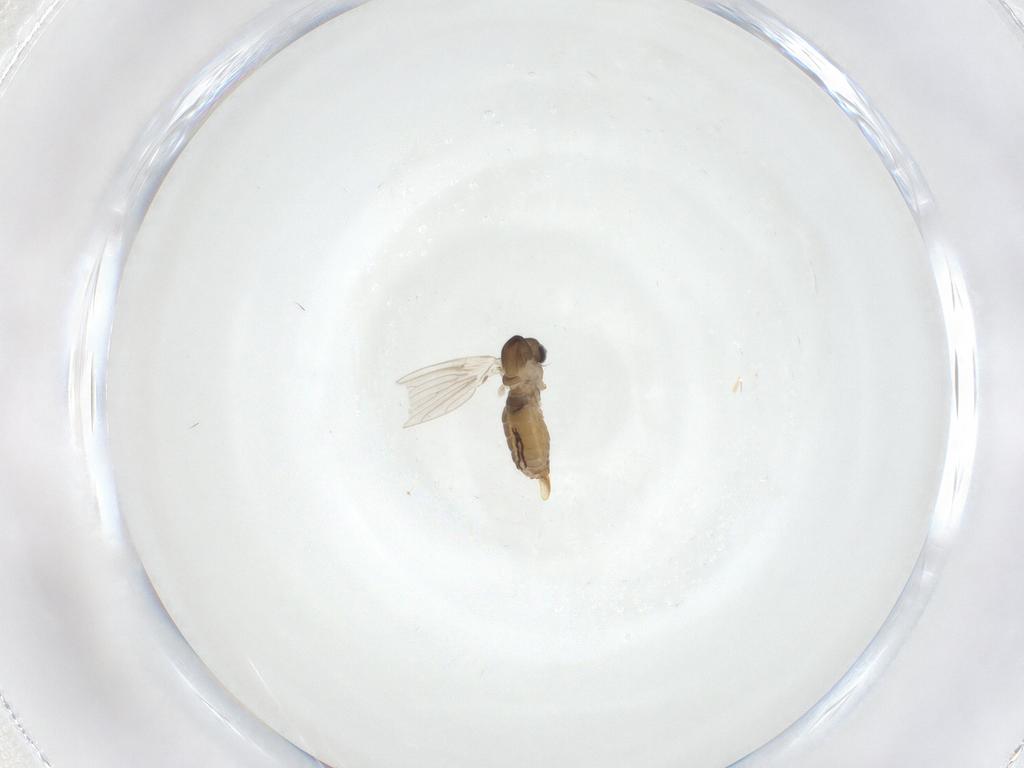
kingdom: Animalia
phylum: Arthropoda
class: Insecta
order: Diptera
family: Psychodidae
